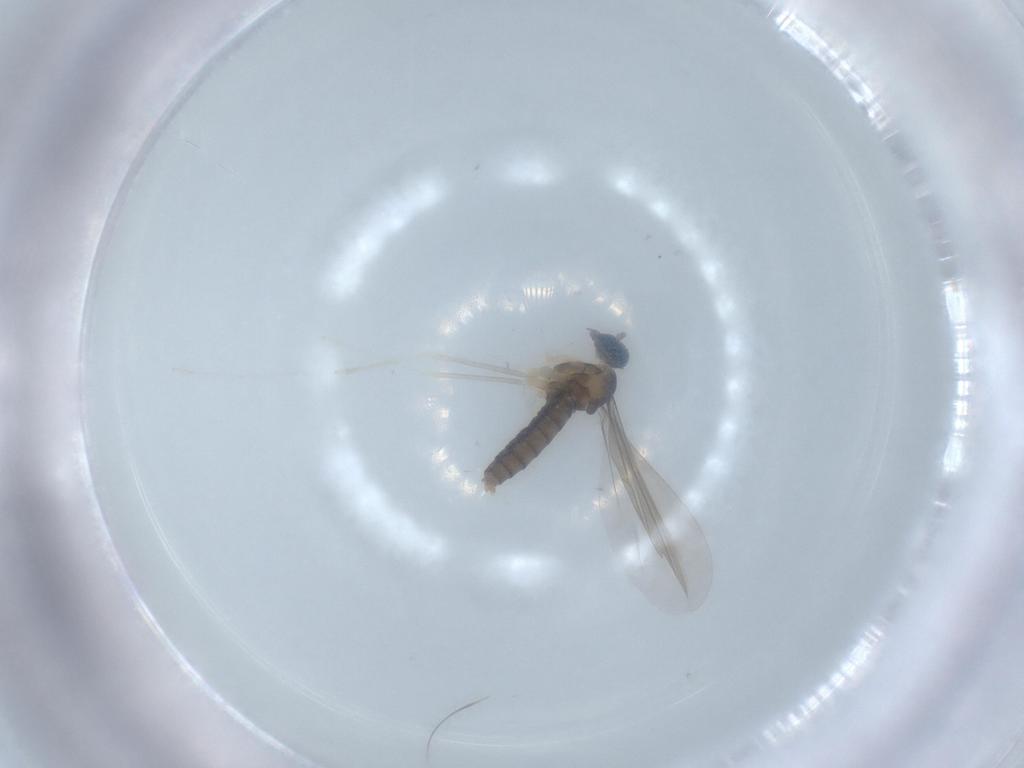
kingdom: Animalia
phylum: Arthropoda
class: Insecta
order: Diptera
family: Cecidomyiidae
